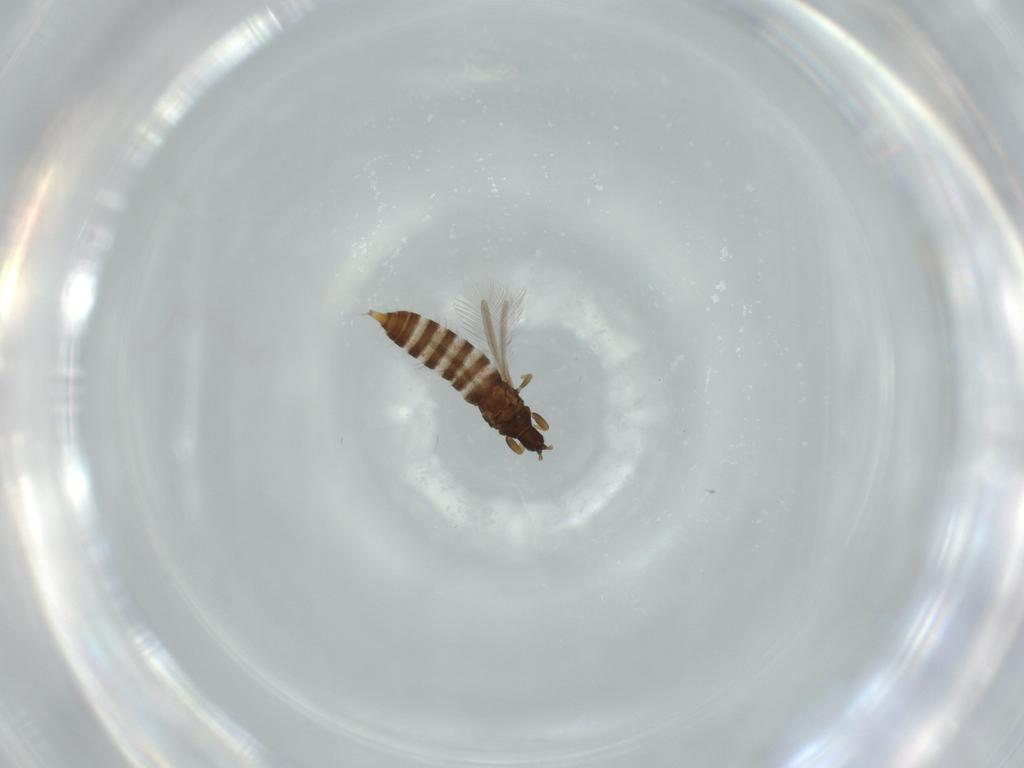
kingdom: Animalia
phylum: Arthropoda
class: Insecta
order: Thysanoptera
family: Phlaeothripidae
